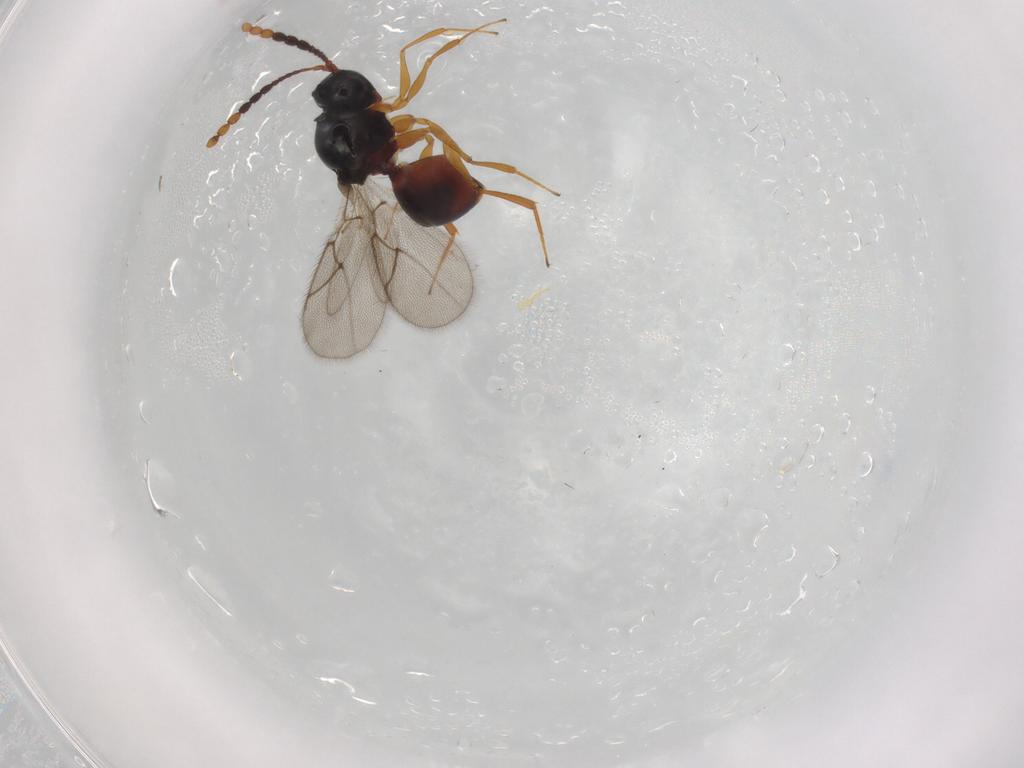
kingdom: Animalia
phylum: Arthropoda
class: Insecta
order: Hymenoptera
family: Figitidae
